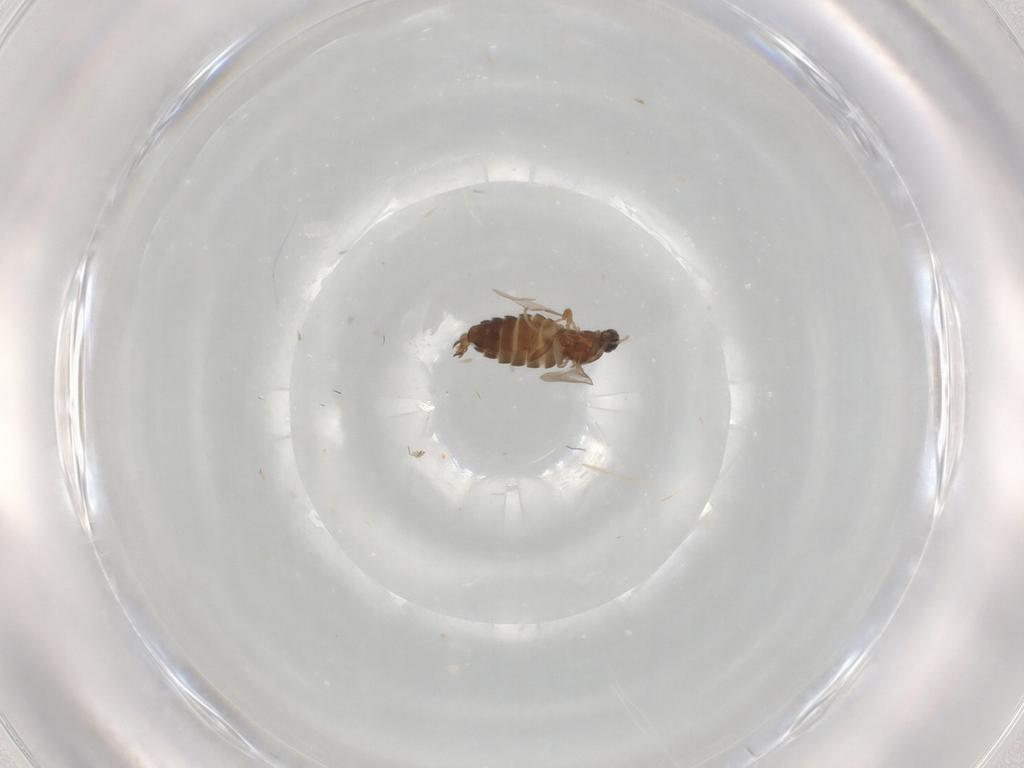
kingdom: Animalia
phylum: Arthropoda
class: Insecta
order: Diptera
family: Scatopsidae
